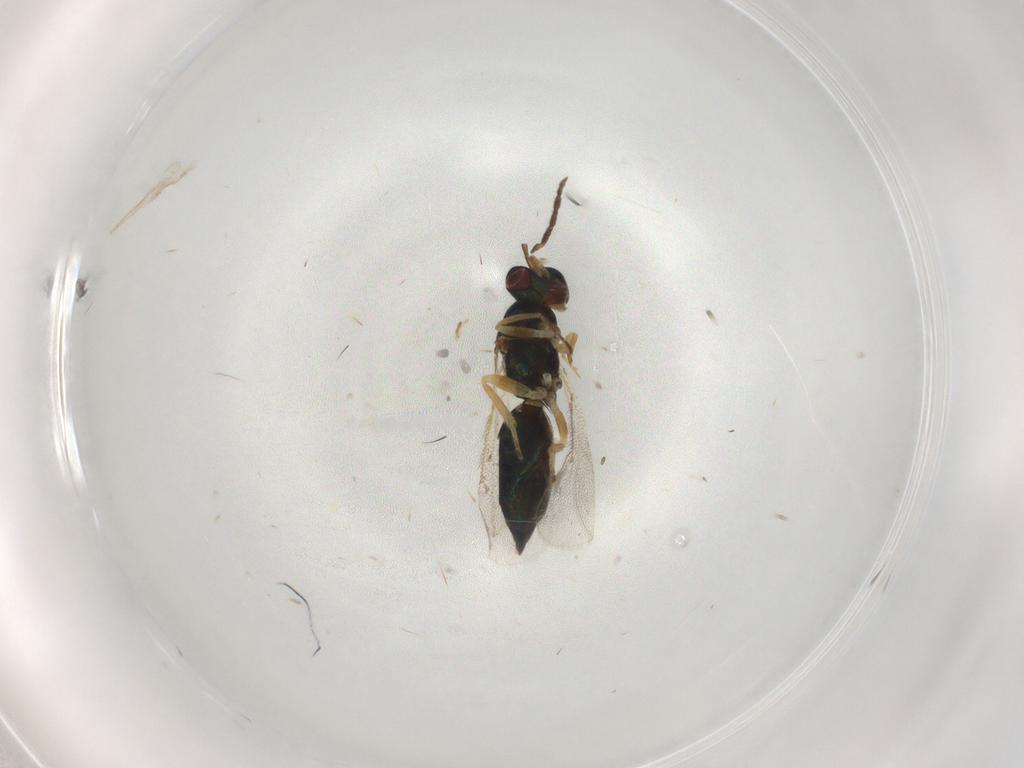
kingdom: Animalia
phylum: Arthropoda
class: Insecta
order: Hymenoptera
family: Eulophidae
